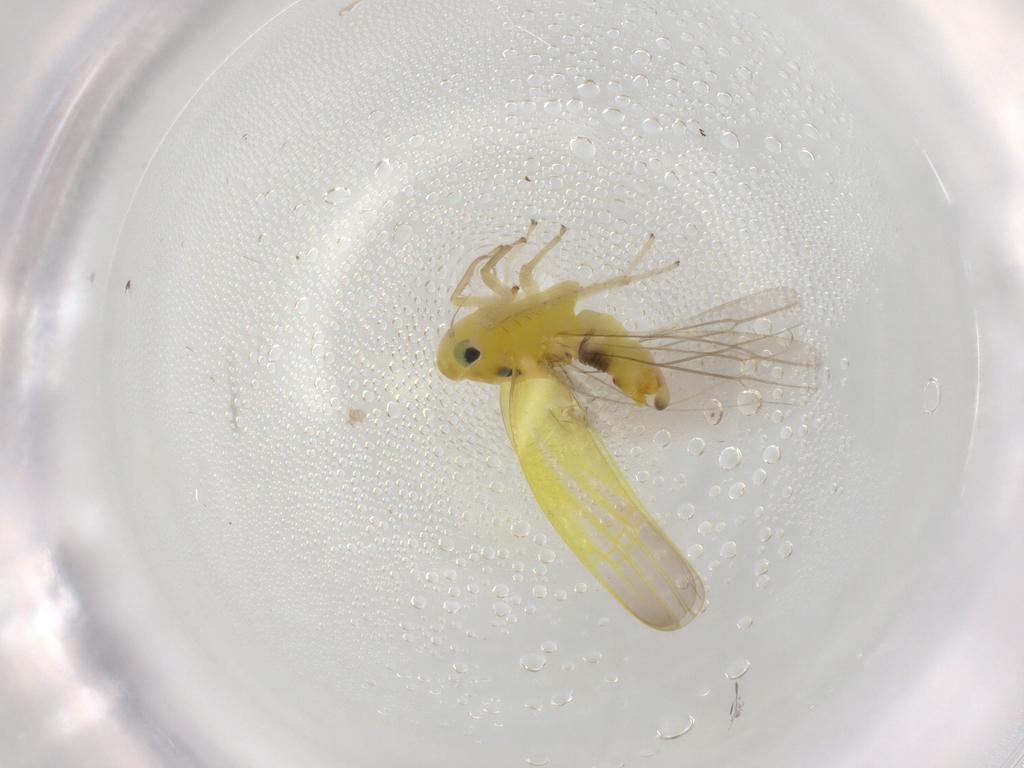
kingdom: Animalia
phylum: Arthropoda
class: Insecta
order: Hemiptera
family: Cicadellidae
